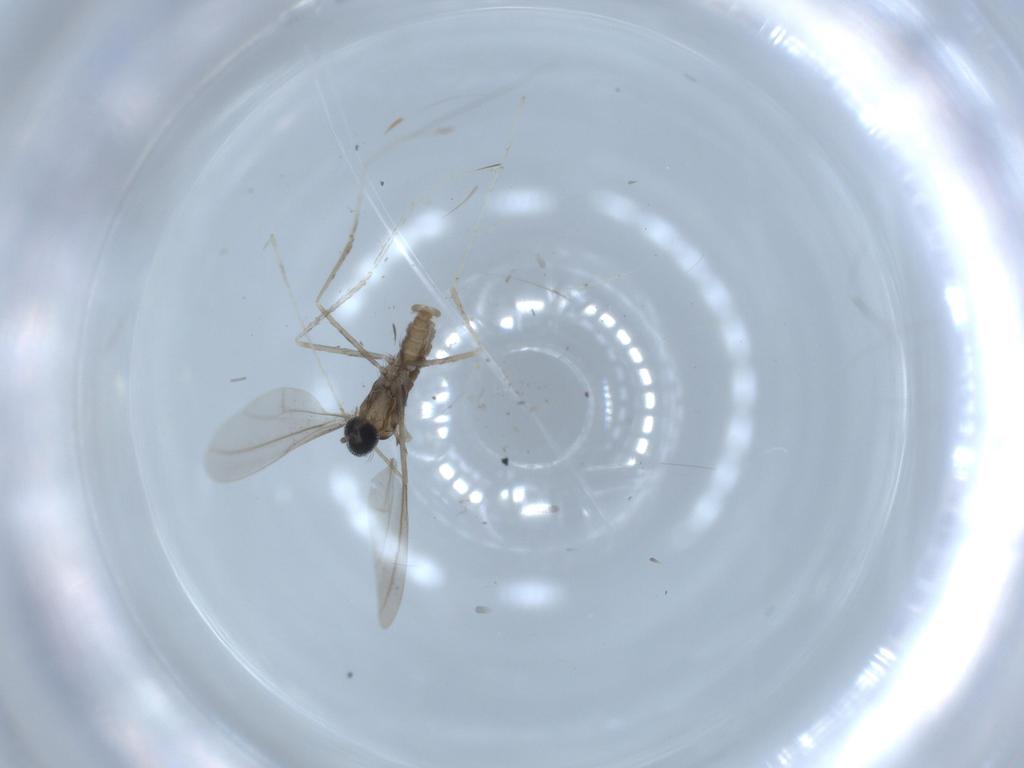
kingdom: Animalia
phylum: Arthropoda
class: Insecta
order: Diptera
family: Cecidomyiidae
